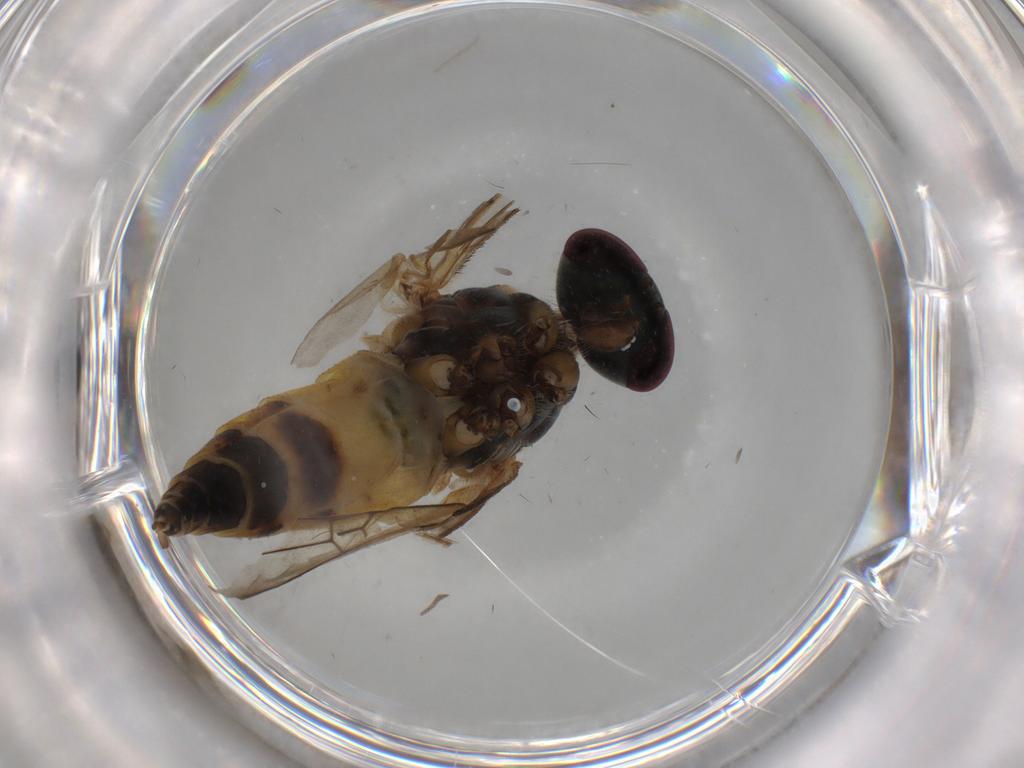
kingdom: Animalia
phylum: Arthropoda
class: Insecta
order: Diptera
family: Rhagionidae
